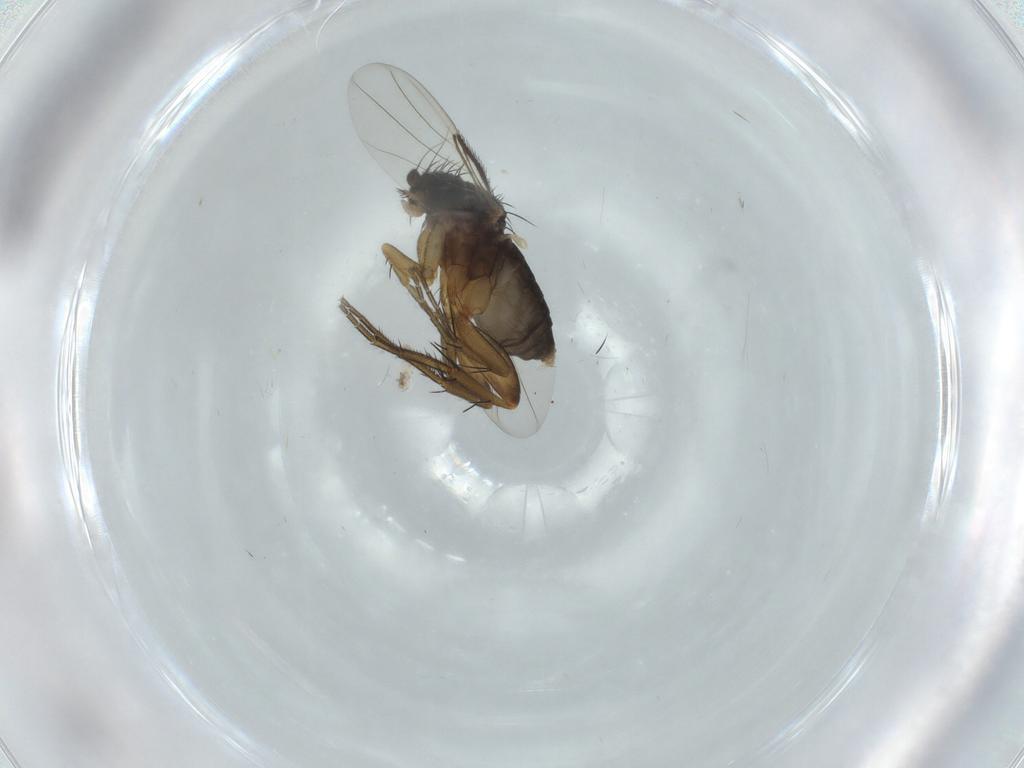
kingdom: Animalia
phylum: Arthropoda
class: Insecta
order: Diptera
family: Phoridae
